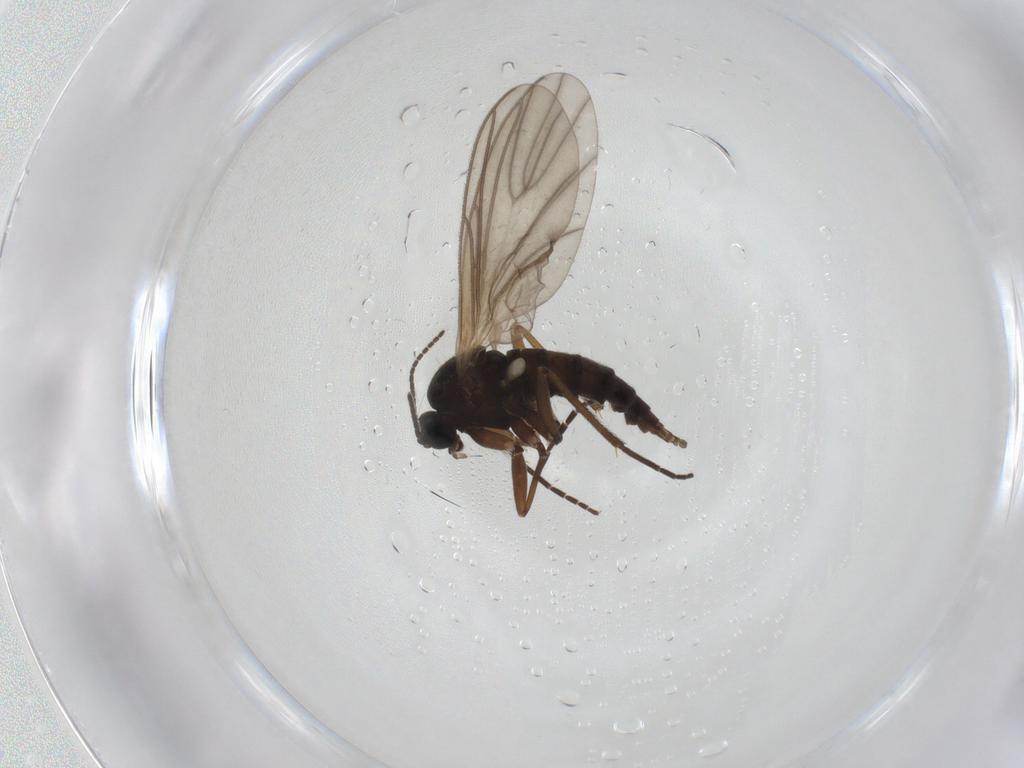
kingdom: Animalia
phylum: Arthropoda
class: Insecta
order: Diptera
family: Sciaridae
